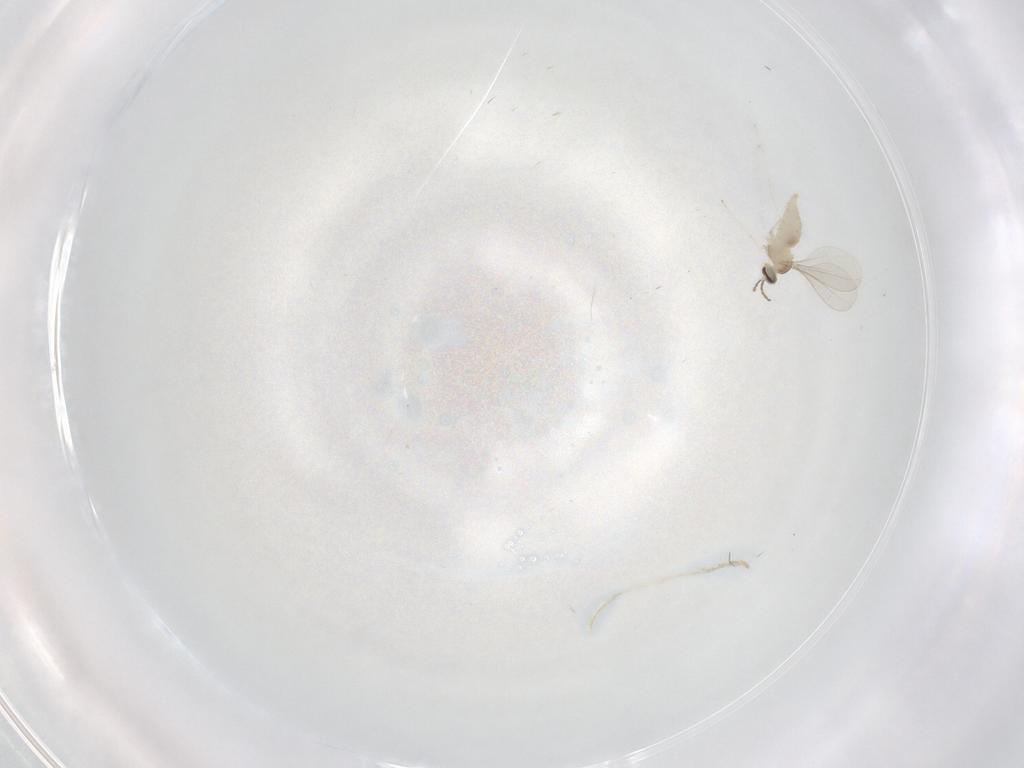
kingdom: Animalia
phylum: Arthropoda
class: Insecta
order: Diptera
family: Cecidomyiidae
